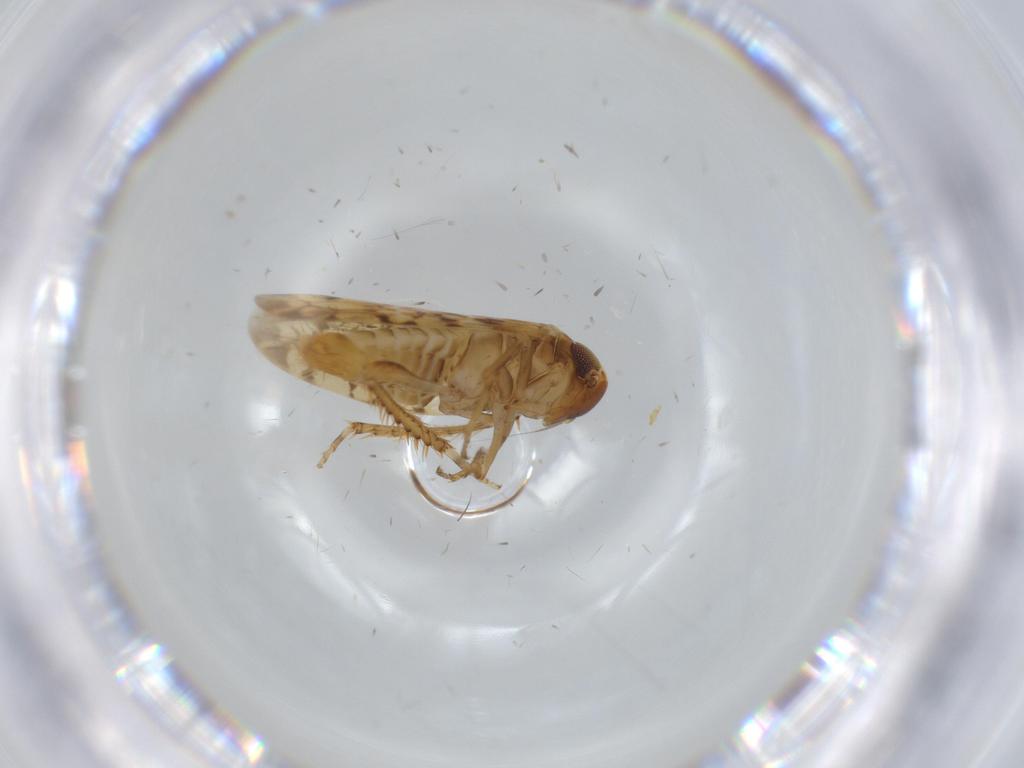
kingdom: Animalia
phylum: Arthropoda
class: Insecta
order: Hemiptera
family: Cicadellidae
